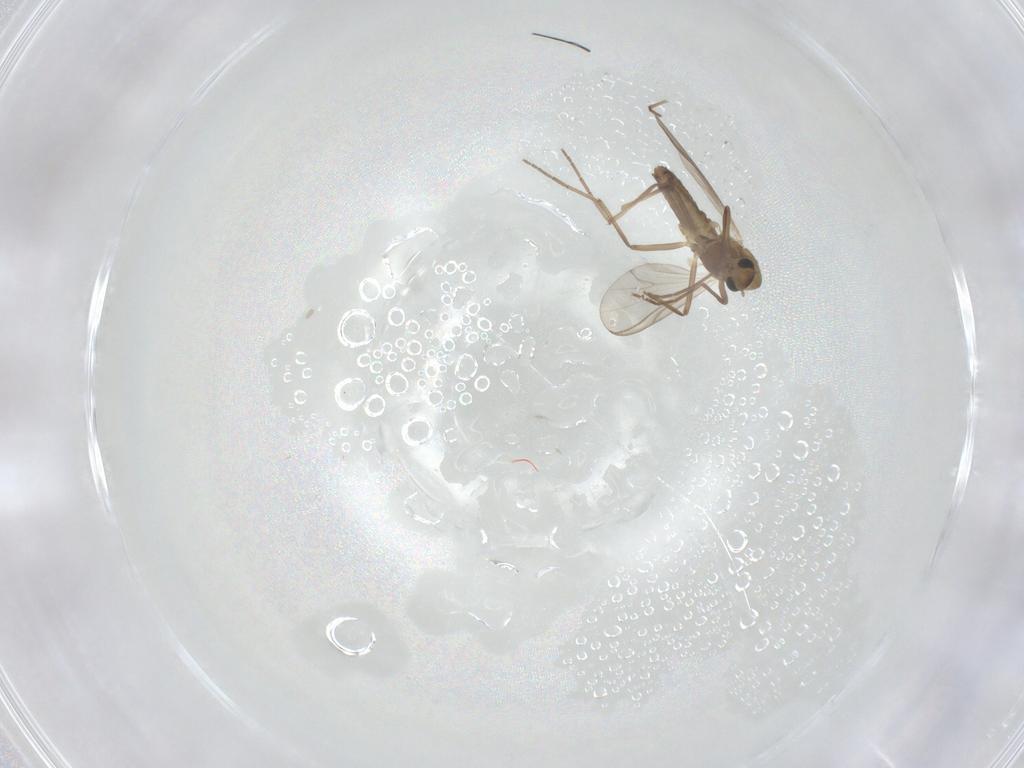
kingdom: Animalia
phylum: Arthropoda
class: Insecta
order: Diptera
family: Chironomidae
